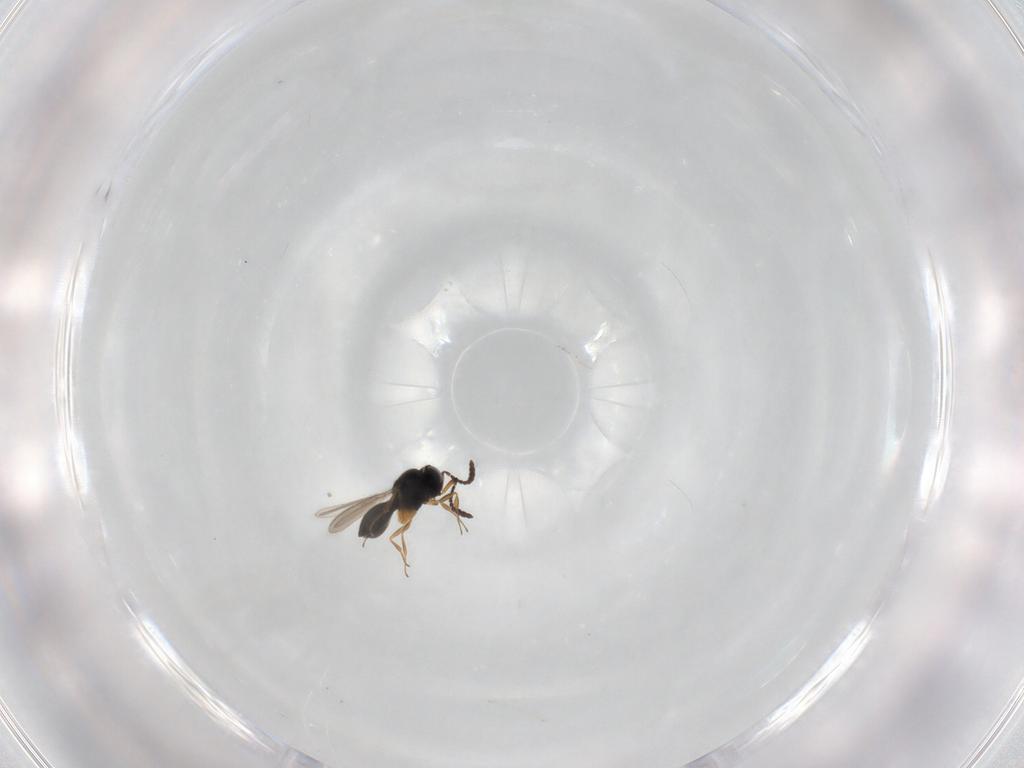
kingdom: Animalia
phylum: Arthropoda
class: Insecta
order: Hymenoptera
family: Scelionidae
